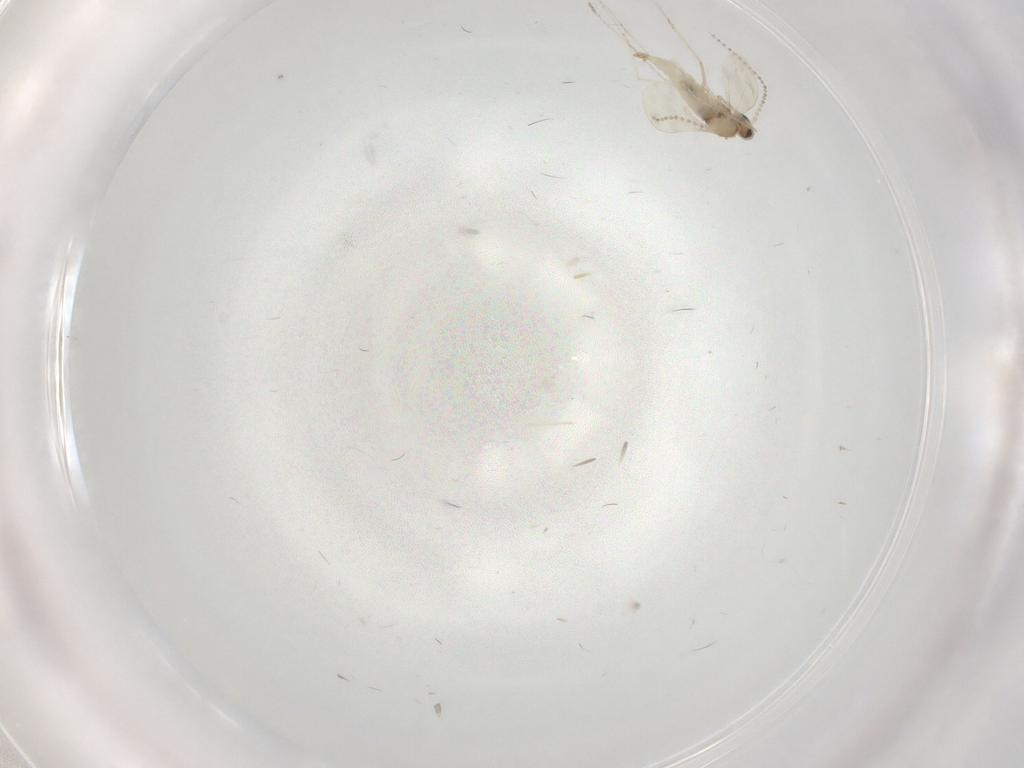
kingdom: Animalia
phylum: Arthropoda
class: Insecta
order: Diptera
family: Cecidomyiidae
